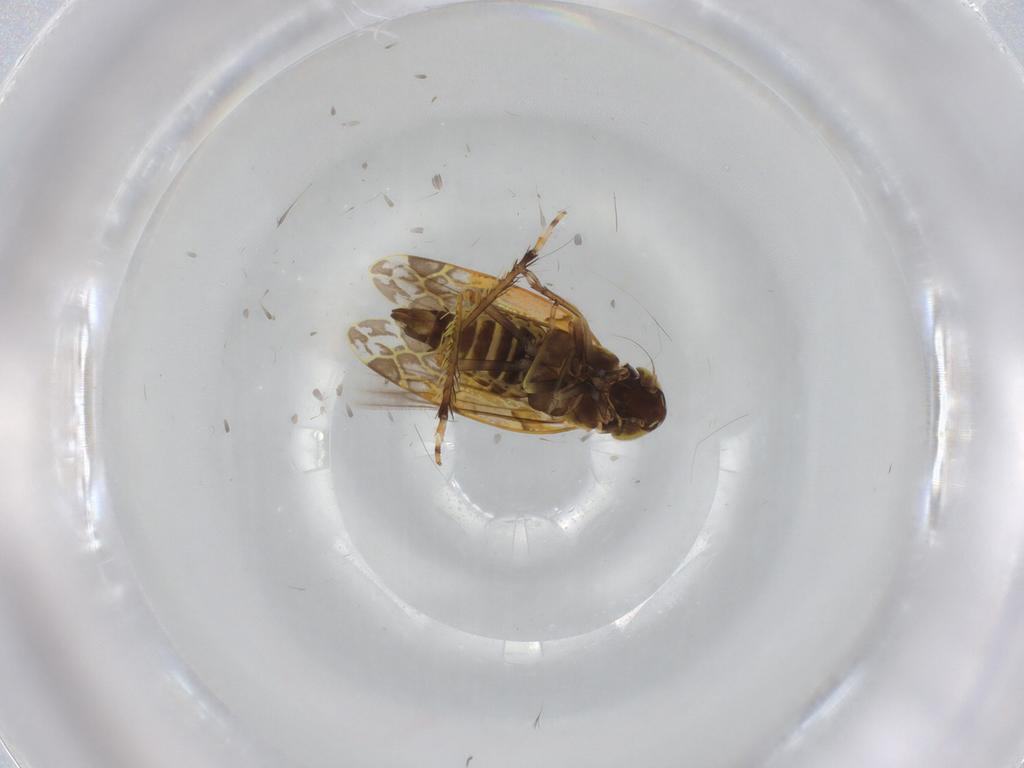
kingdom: Animalia
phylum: Arthropoda
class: Insecta
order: Hemiptera
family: Cicadellidae
